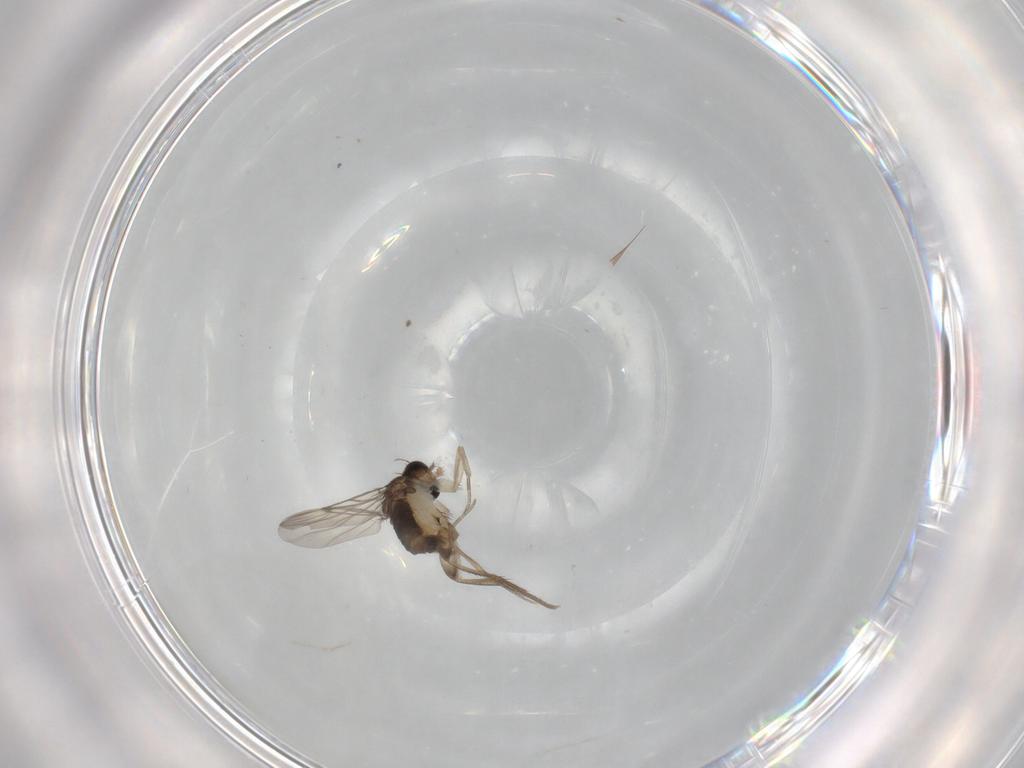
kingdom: Animalia
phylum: Arthropoda
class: Insecta
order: Diptera
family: Phoridae
